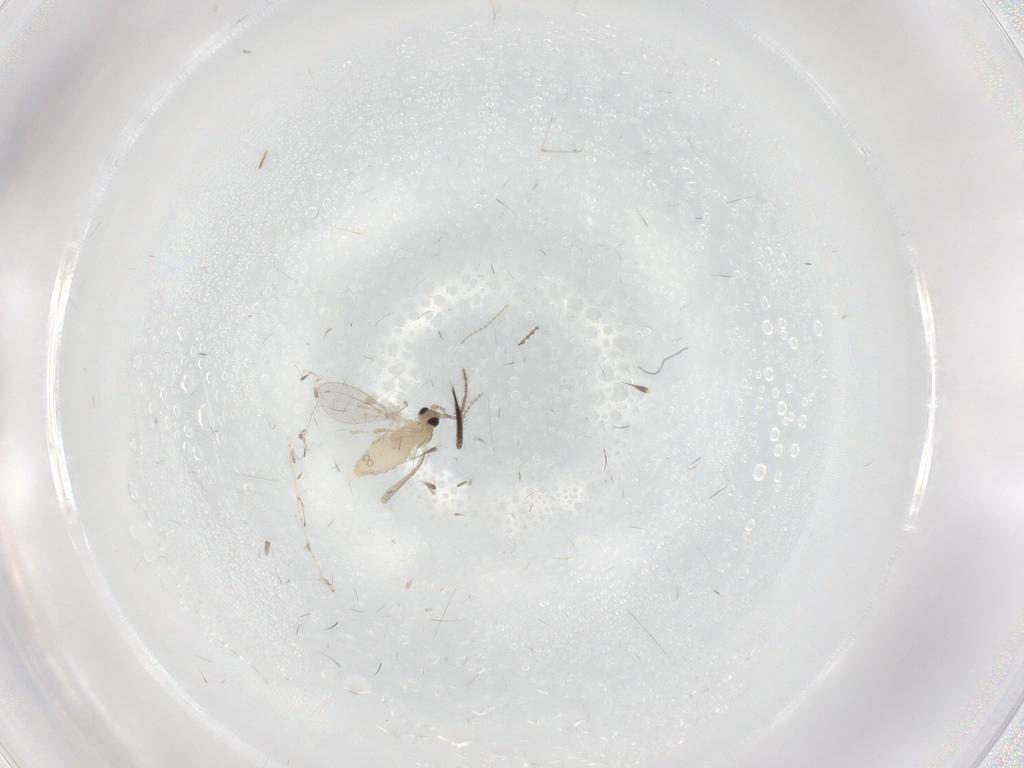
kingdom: Animalia
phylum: Arthropoda
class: Insecta
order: Diptera
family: Cecidomyiidae
